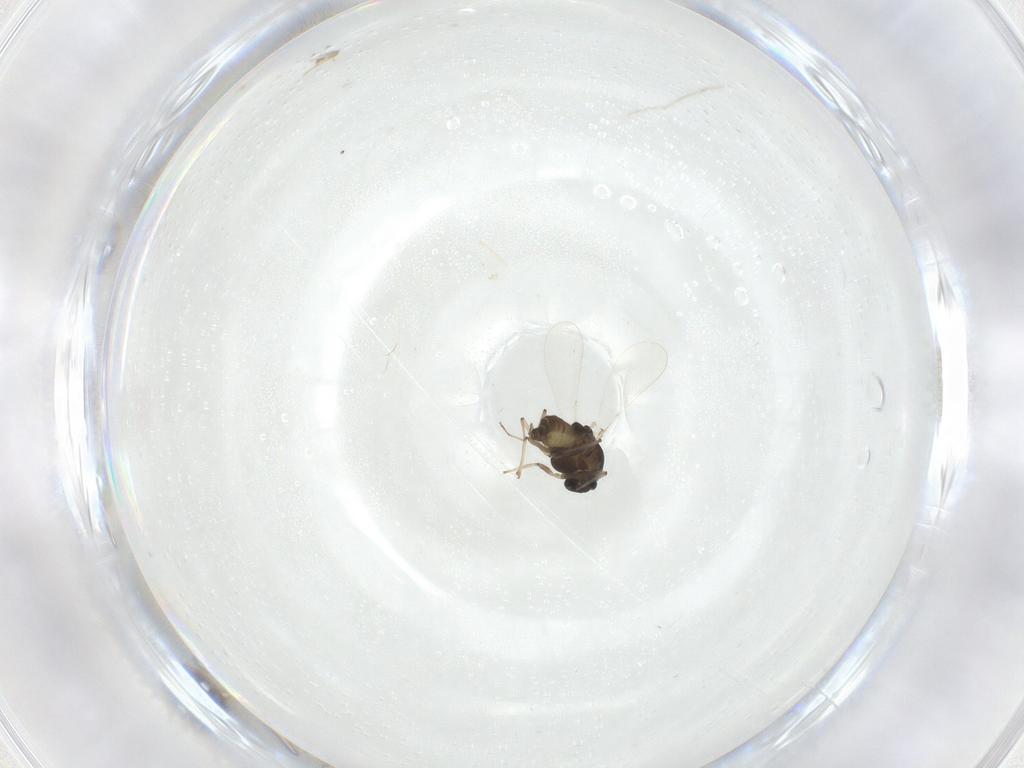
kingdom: Animalia
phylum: Arthropoda
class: Insecta
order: Diptera
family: Chironomidae
